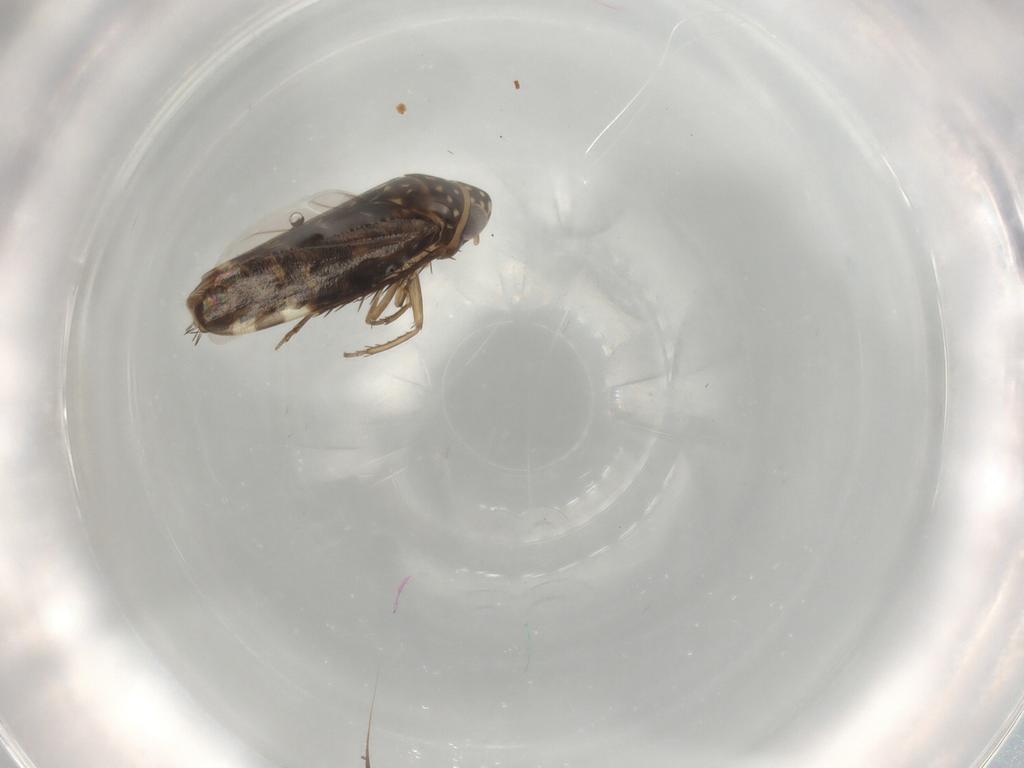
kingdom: Animalia
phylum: Arthropoda
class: Insecta
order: Hemiptera
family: Cicadellidae
